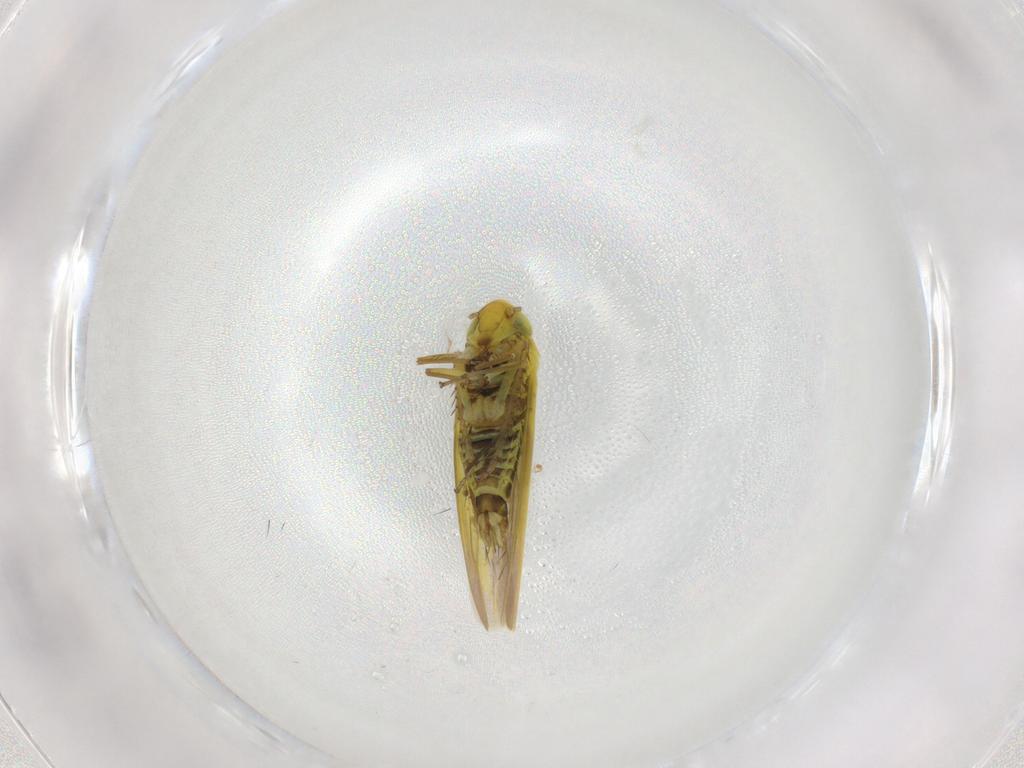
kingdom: Animalia
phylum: Arthropoda
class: Insecta
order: Hemiptera
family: Cicadellidae
